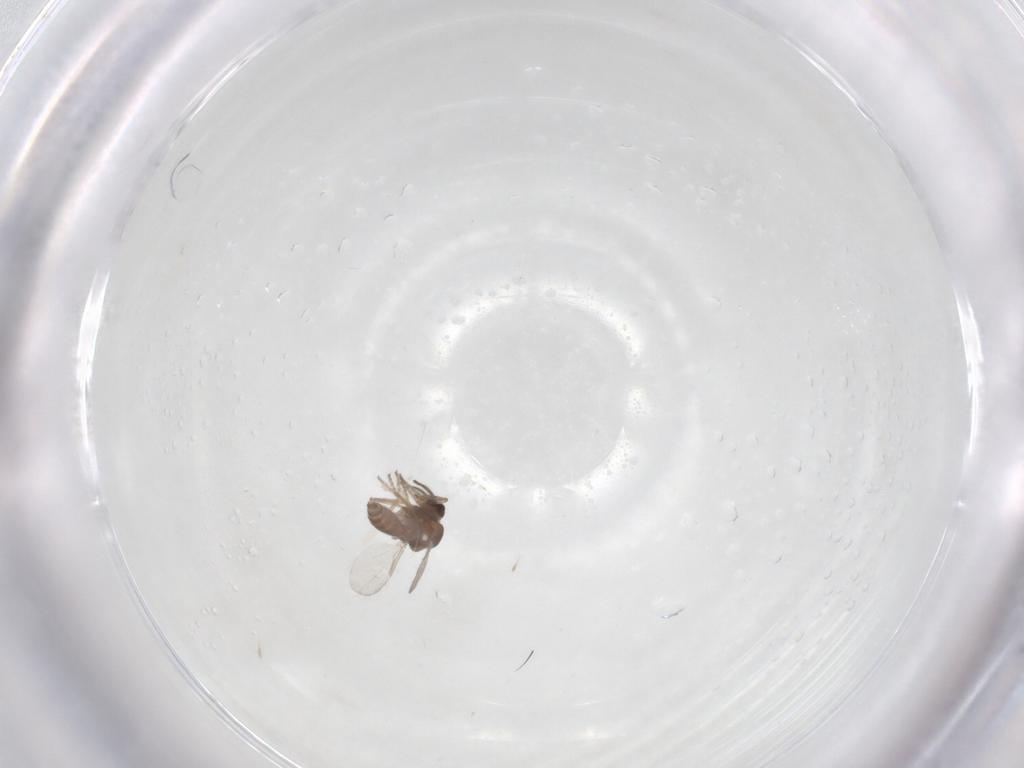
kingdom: Animalia
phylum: Arthropoda
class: Insecta
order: Diptera
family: Ceratopogonidae
